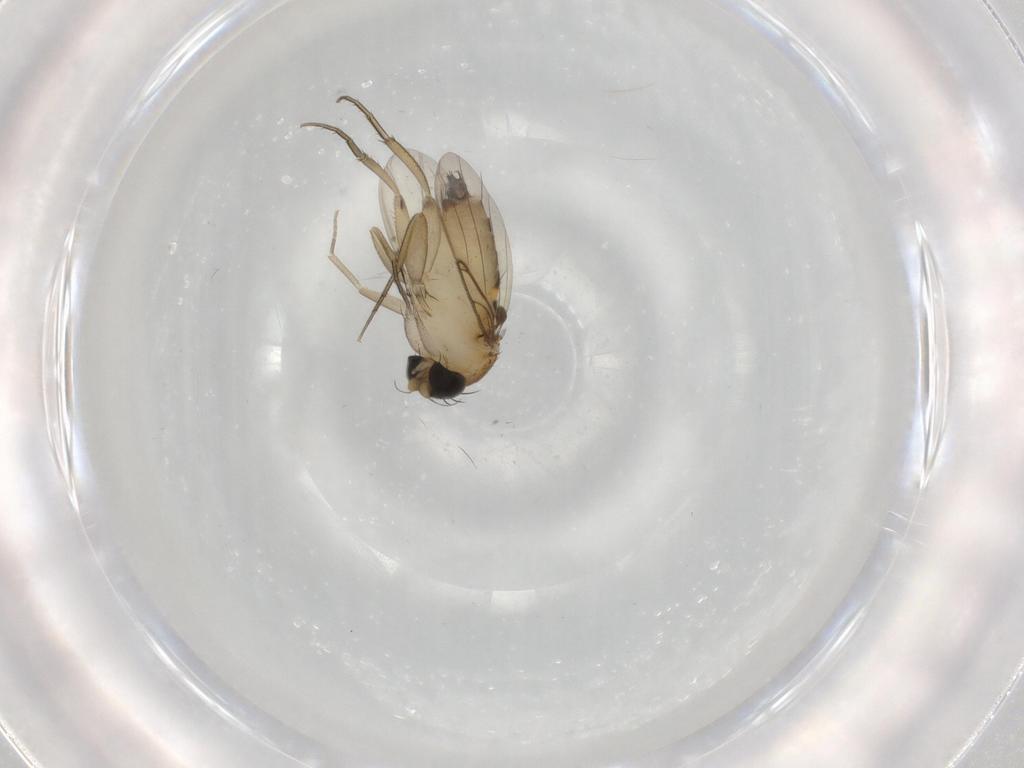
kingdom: Animalia
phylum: Arthropoda
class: Insecta
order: Diptera
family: Phoridae
